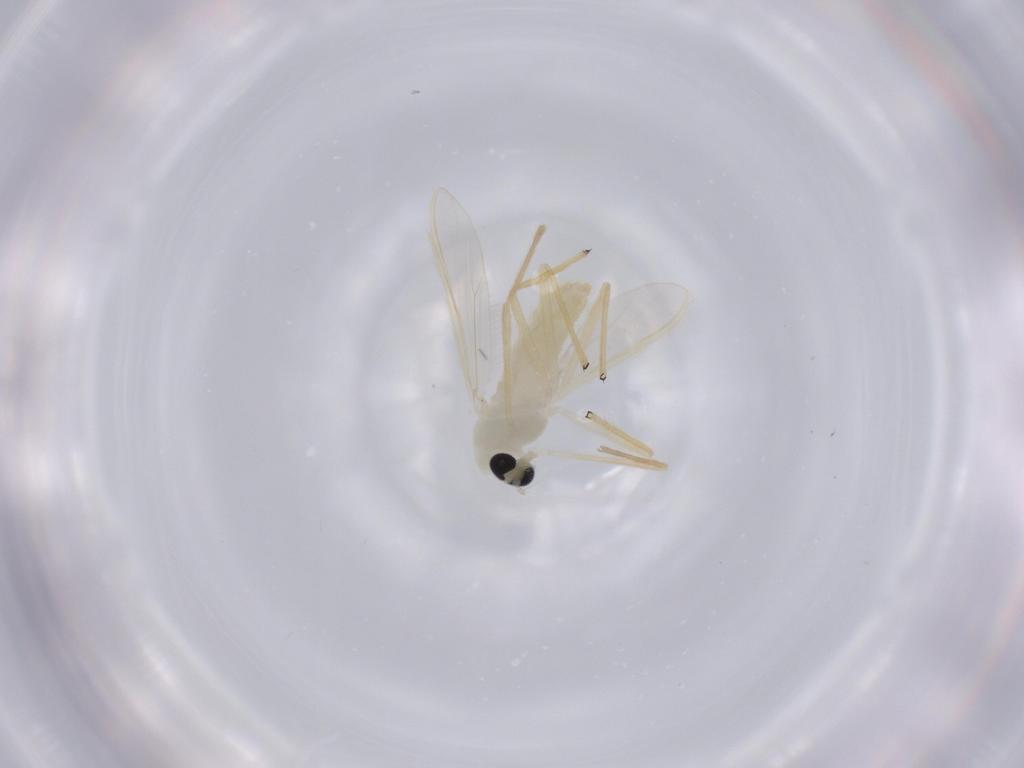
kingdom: Animalia
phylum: Arthropoda
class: Insecta
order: Diptera
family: Chironomidae
